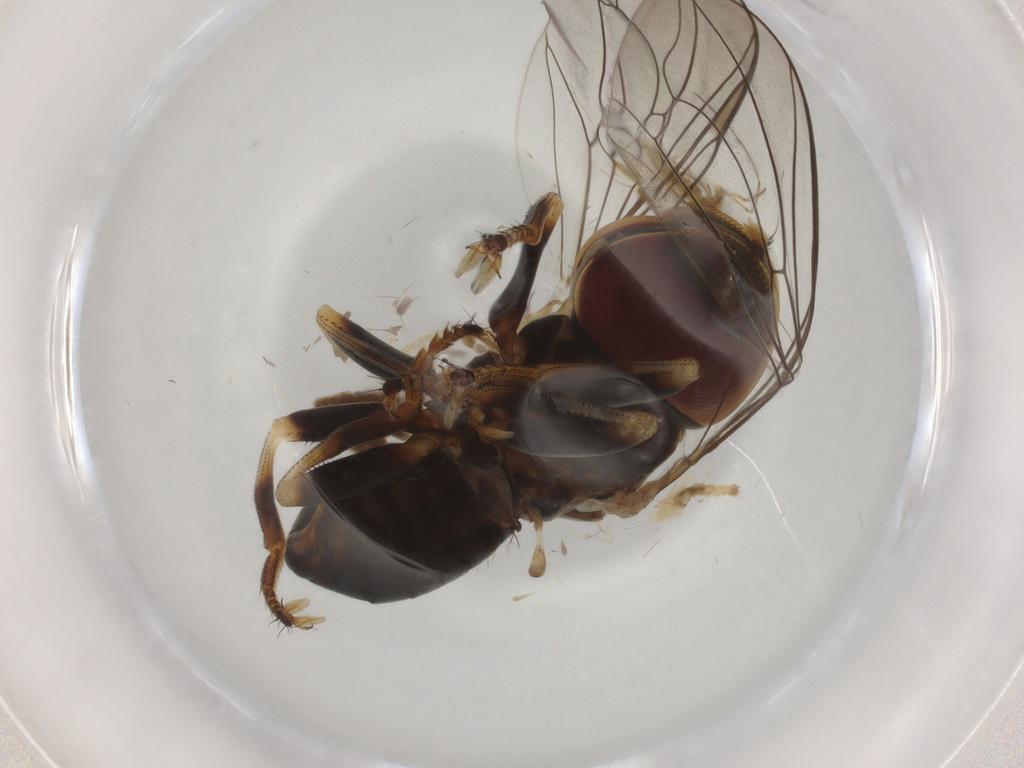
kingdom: Animalia
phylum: Arthropoda
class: Insecta
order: Diptera
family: Pipunculidae
